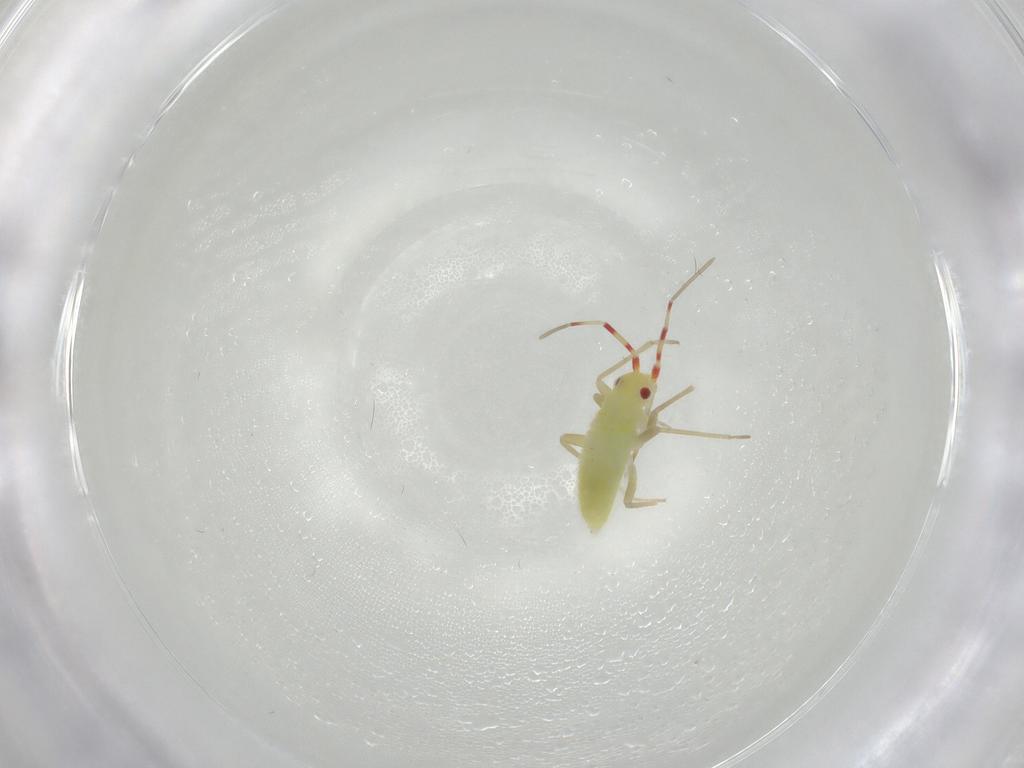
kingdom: Animalia
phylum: Arthropoda
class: Insecta
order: Hemiptera
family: Miridae
